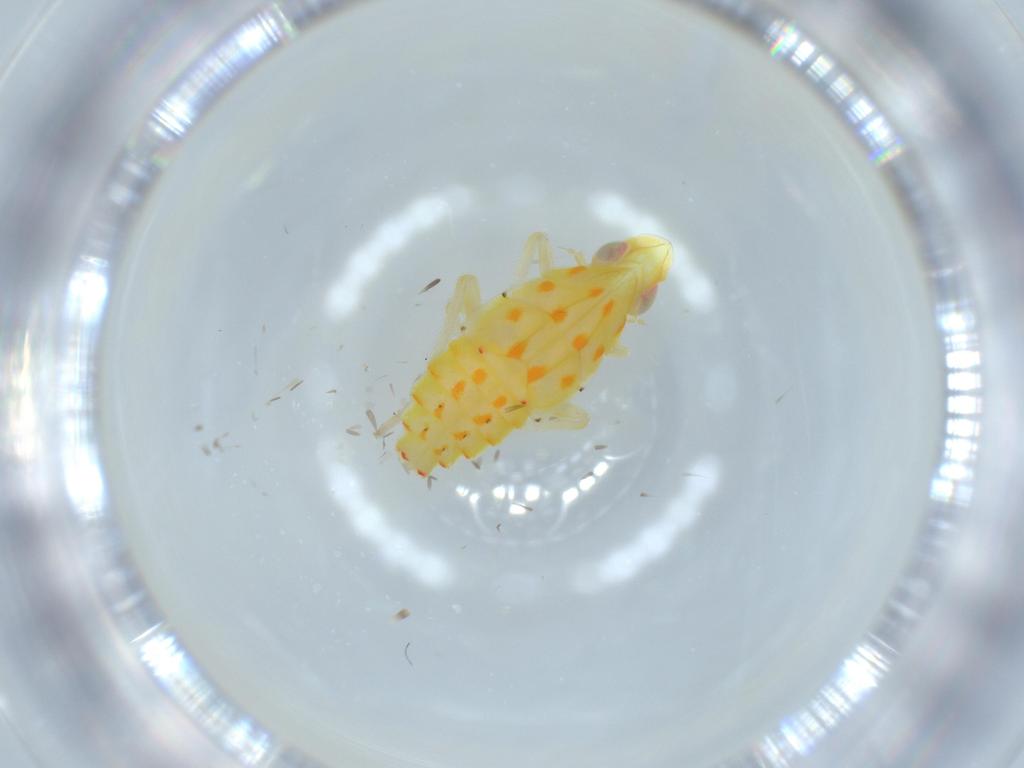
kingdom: Animalia
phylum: Arthropoda
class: Insecta
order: Hemiptera
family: Tropiduchidae
